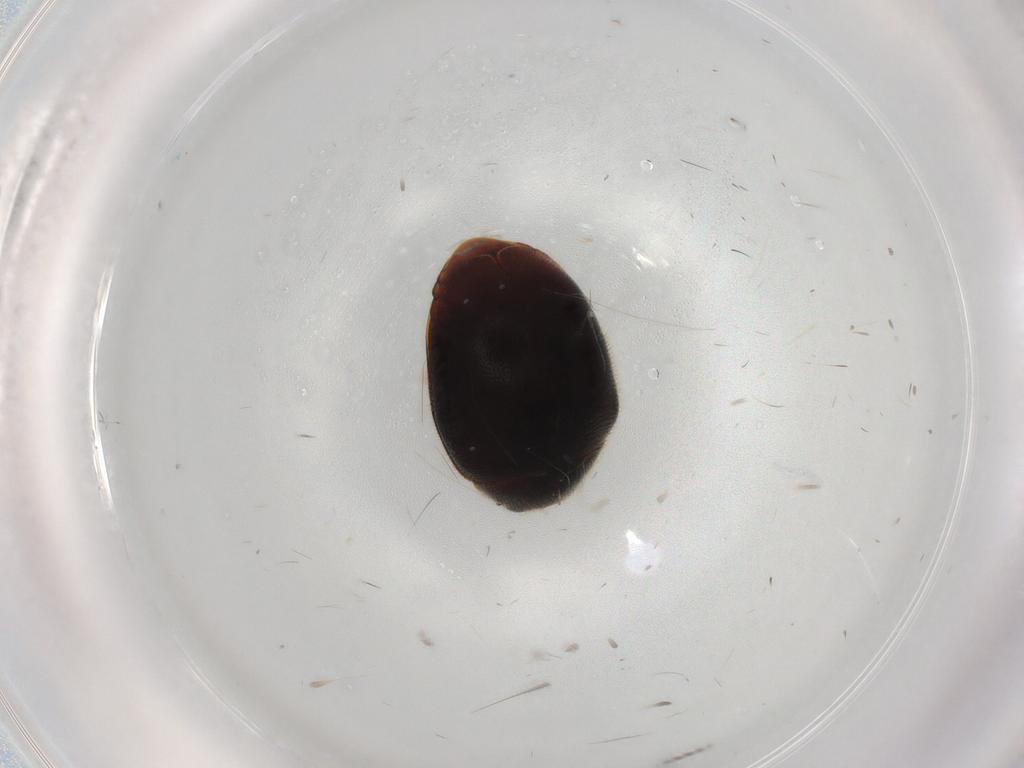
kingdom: Animalia
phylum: Arthropoda
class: Insecta
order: Coleoptera
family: Coccinellidae
